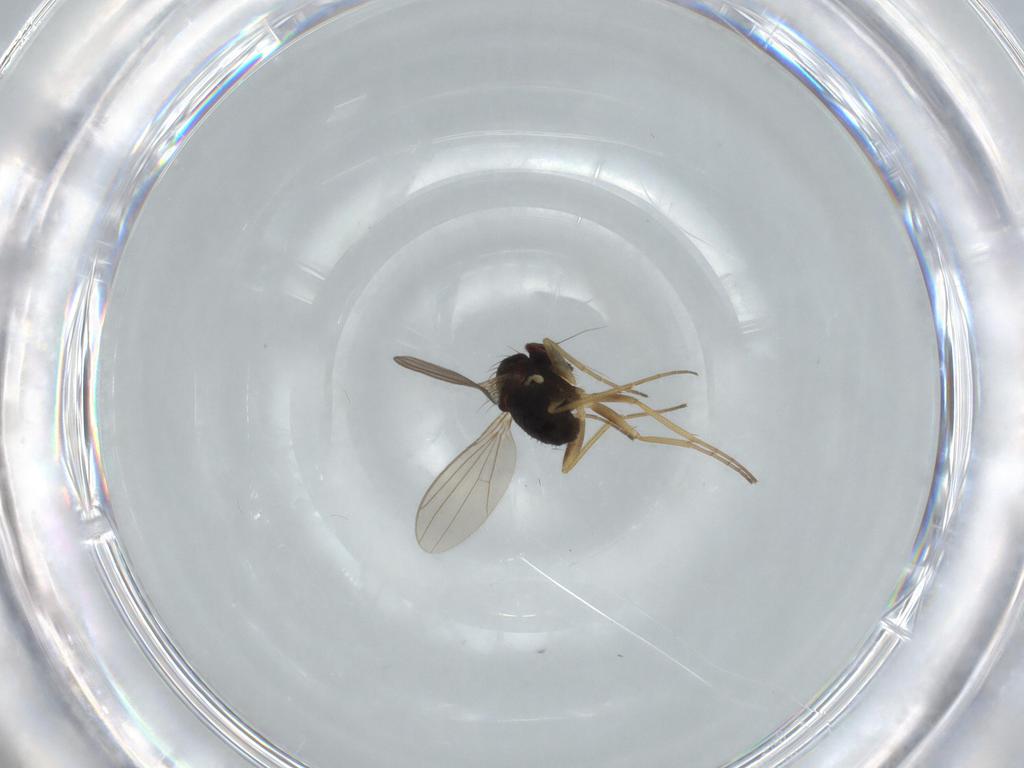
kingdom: Animalia
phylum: Arthropoda
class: Insecta
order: Diptera
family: Dolichopodidae
